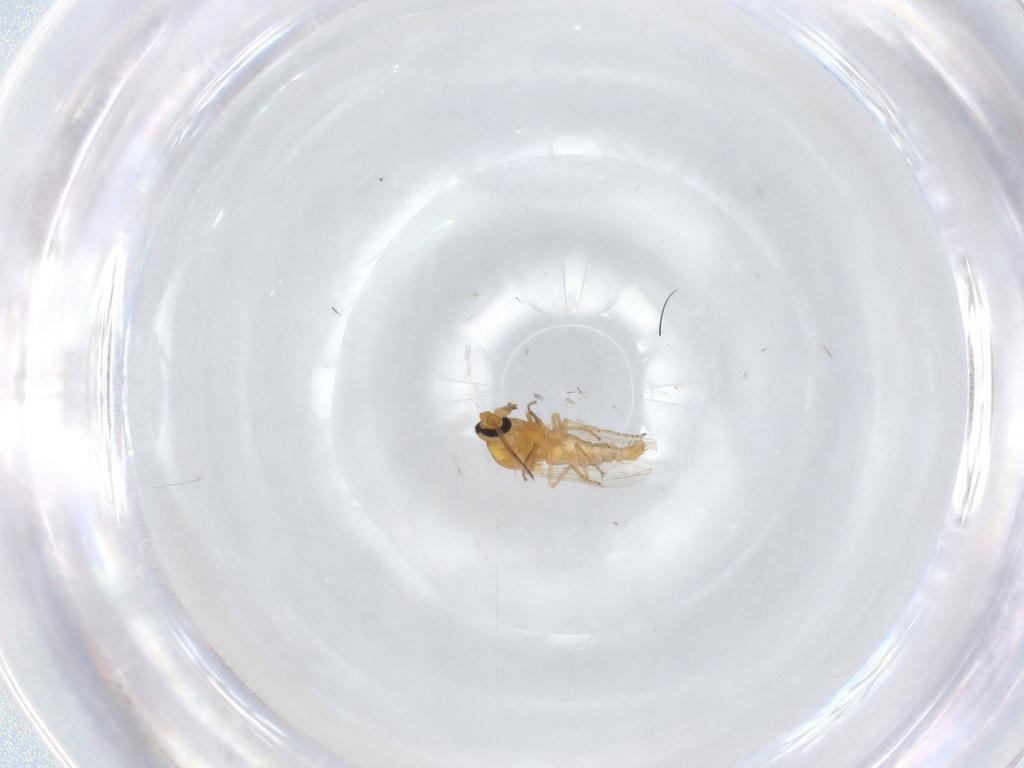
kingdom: Animalia
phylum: Arthropoda
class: Insecta
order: Diptera
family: Ceratopogonidae
